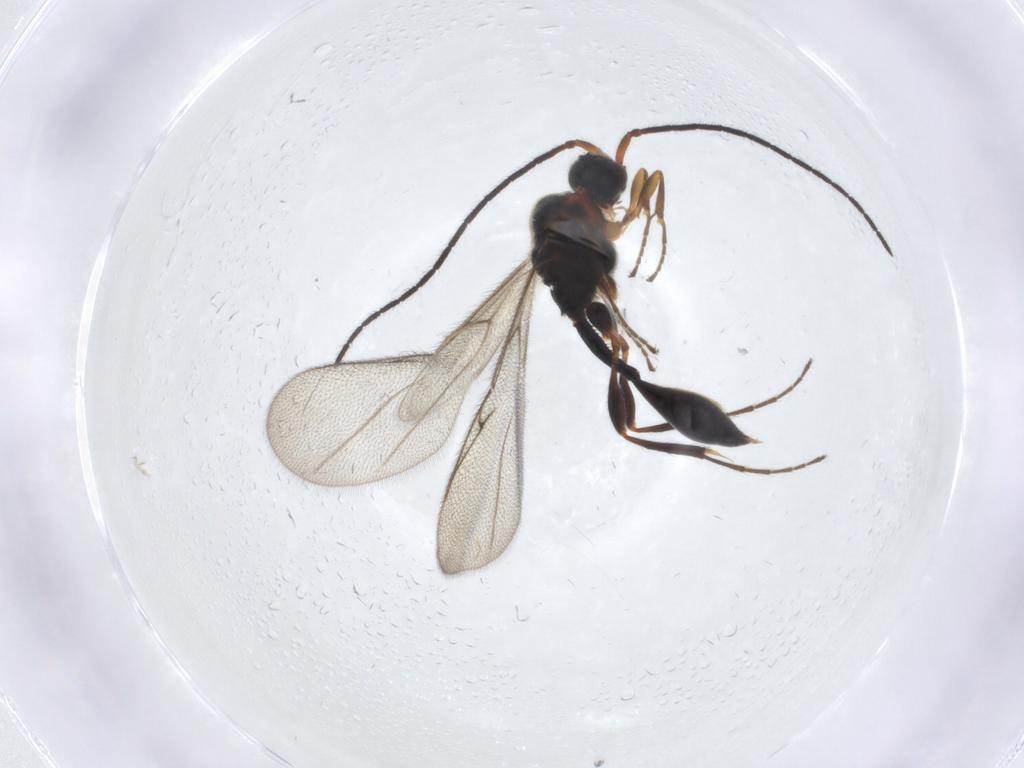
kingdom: Animalia
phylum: Arthropoda
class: Insecta
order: Hymenoptera
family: Diapriidae
